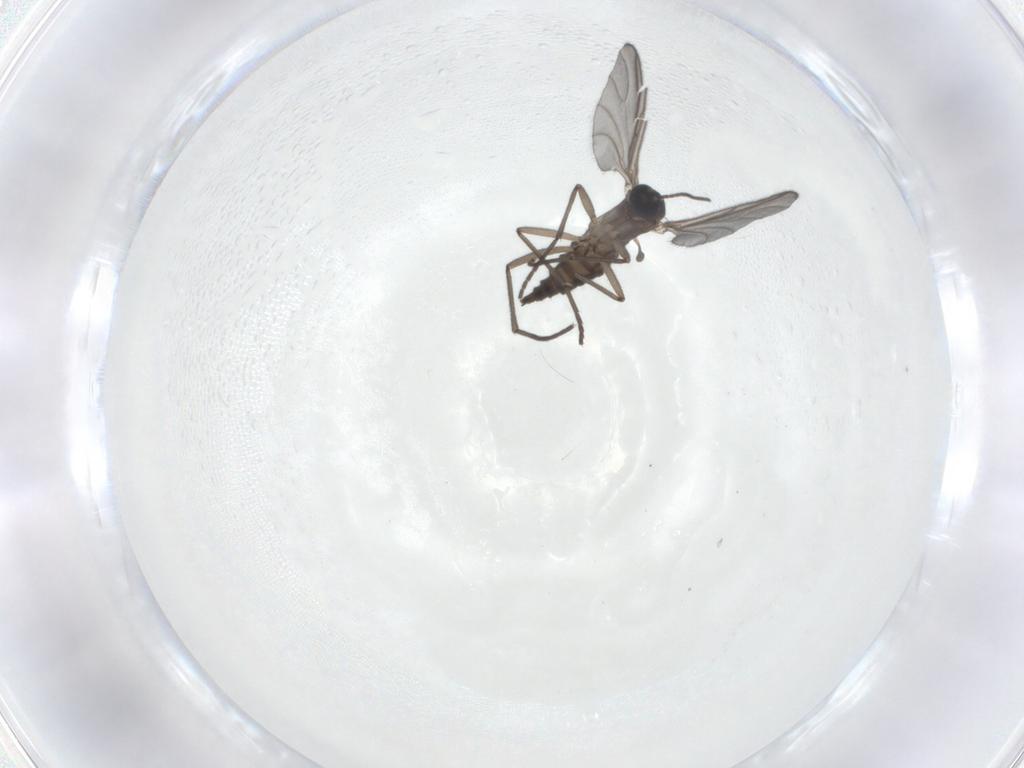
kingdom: Animalia
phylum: Arthropoda
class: Insecta
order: Diptera
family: Sciaridae
